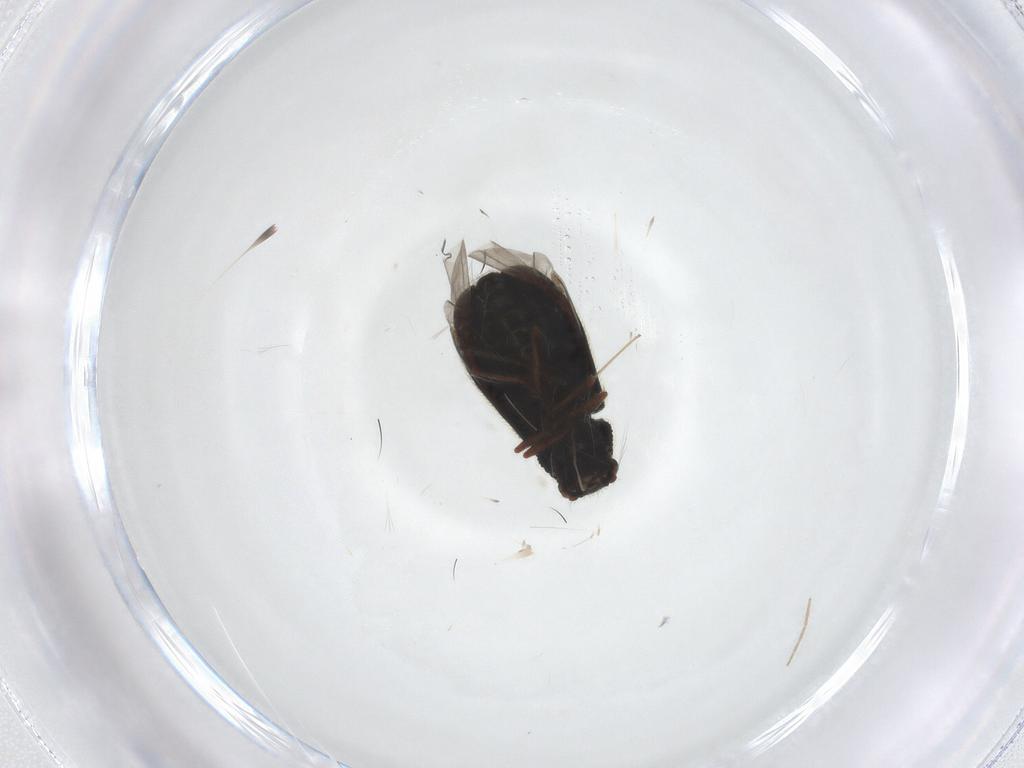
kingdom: Animalia
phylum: Arthropoda
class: Insecta
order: Coleoptera
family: Melyridae
